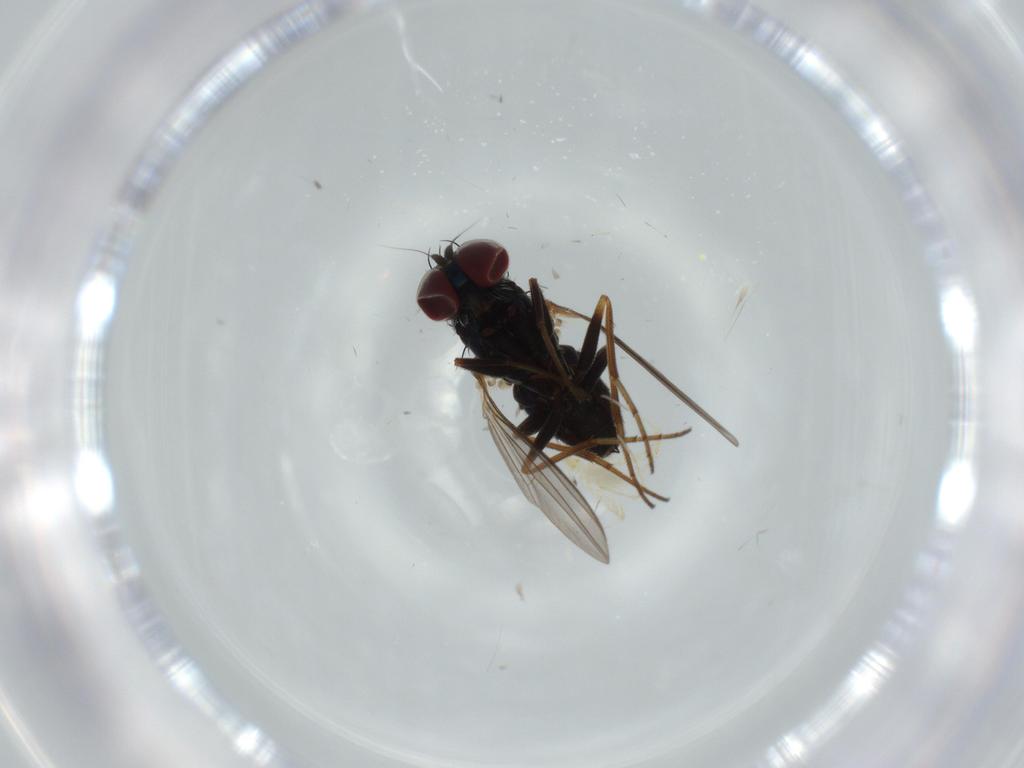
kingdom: Animalia
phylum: Arthropoda
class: Insecta
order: Diptera
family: Dolichopodidae
